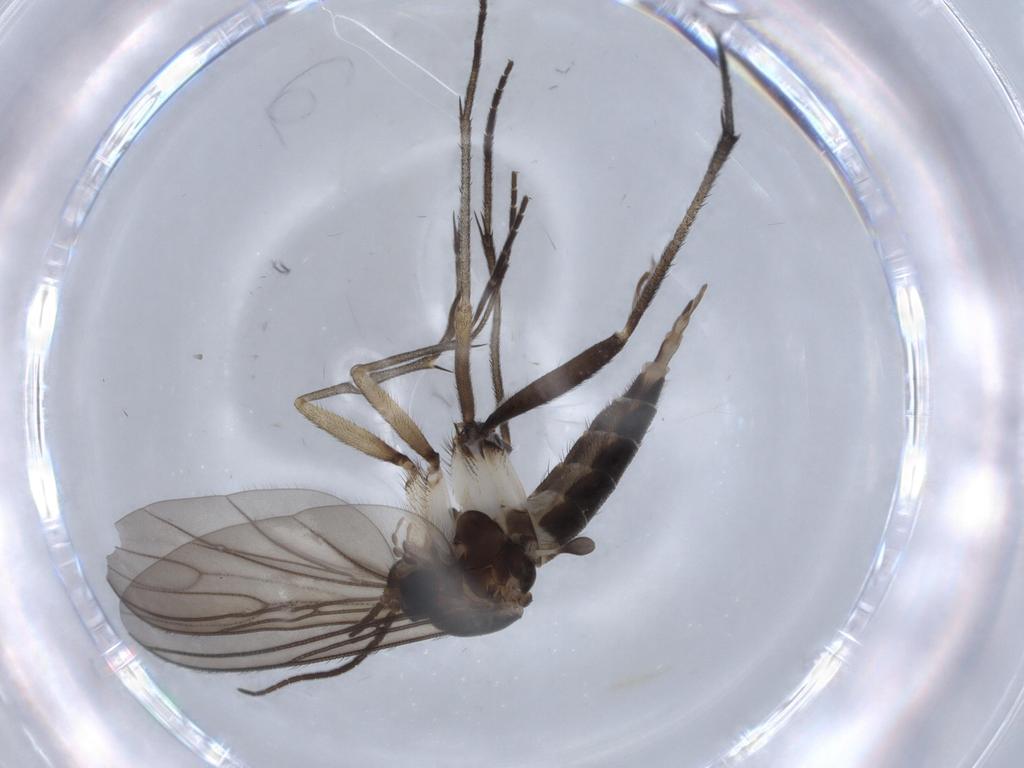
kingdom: Animalia
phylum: Arthropoda
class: Insecta
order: Diptera
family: Sciaridae
